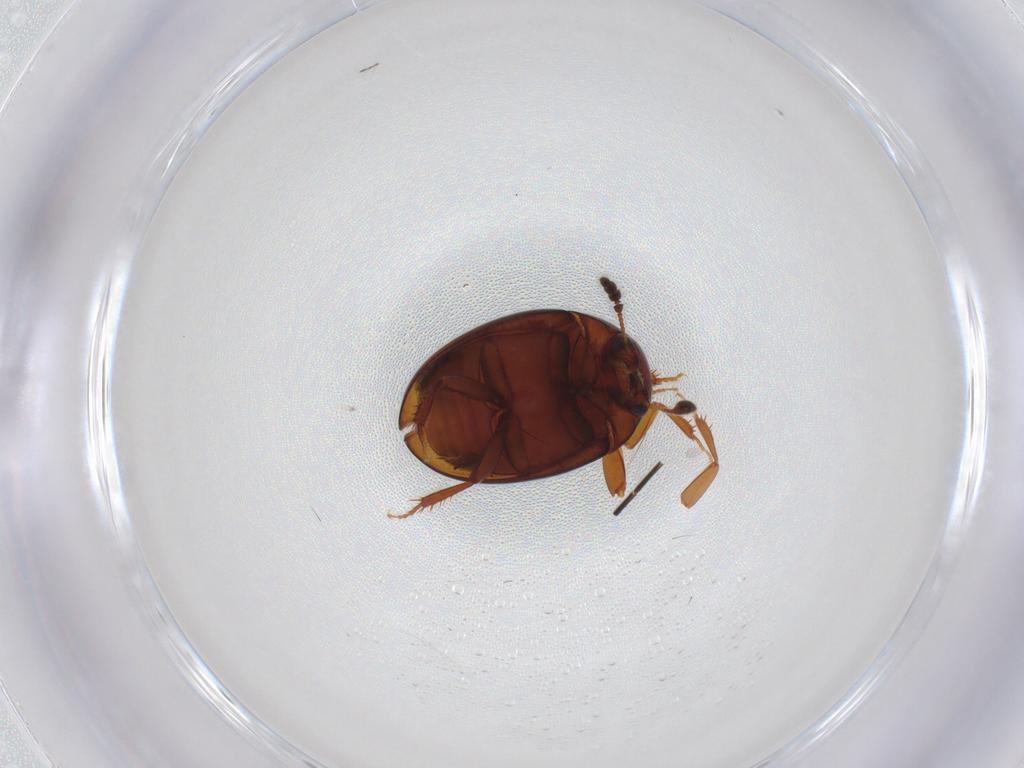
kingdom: Animalia
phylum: Arthropoda
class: Insecta
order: Coleoptera
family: Leiodidae
